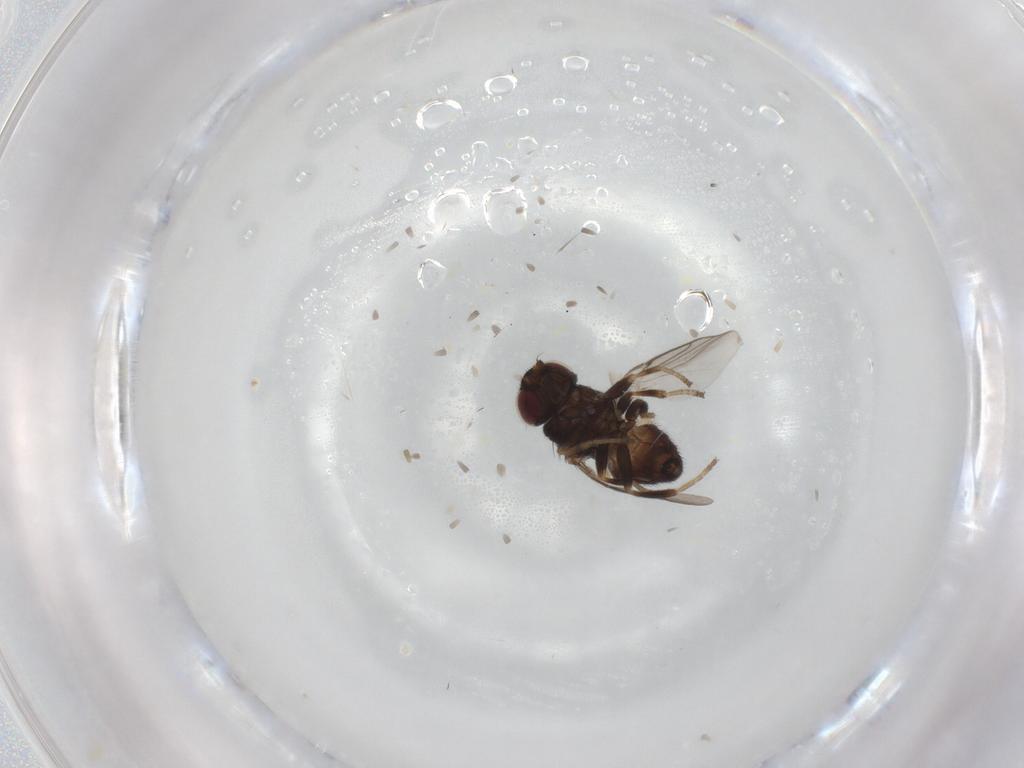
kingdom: Animalia
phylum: Arthropoda
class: Insecta
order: Diptera
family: Chloropidae
